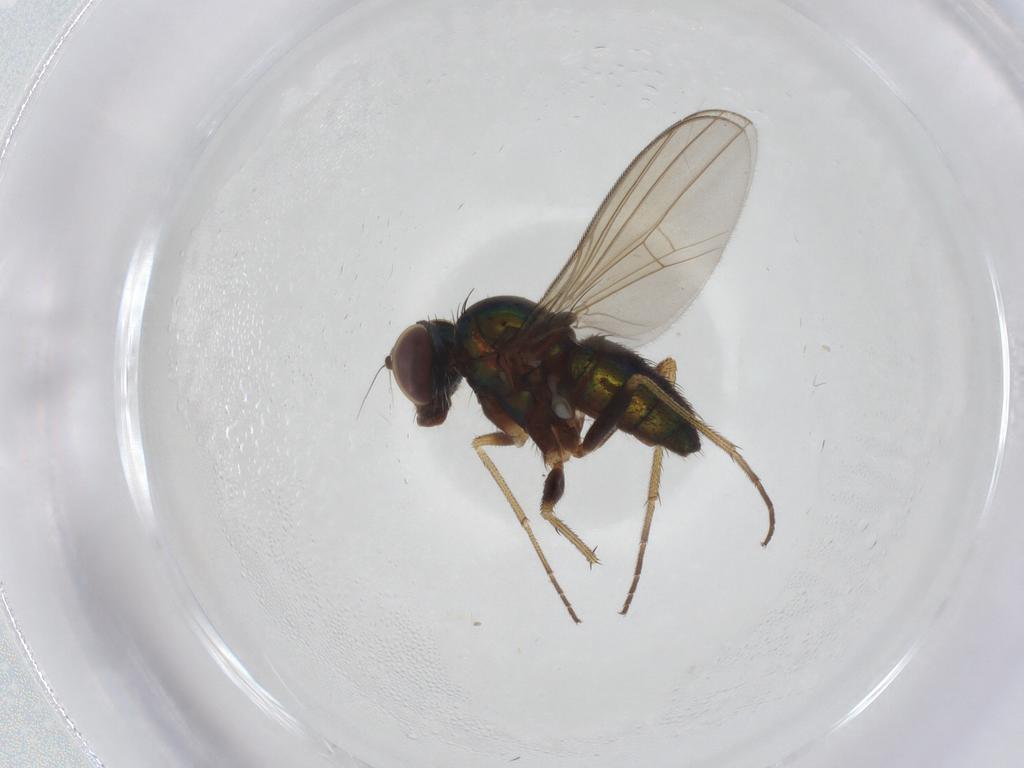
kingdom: Animalia
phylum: Arthropoda
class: Insecta
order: Diptera
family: Dolichopodidae
